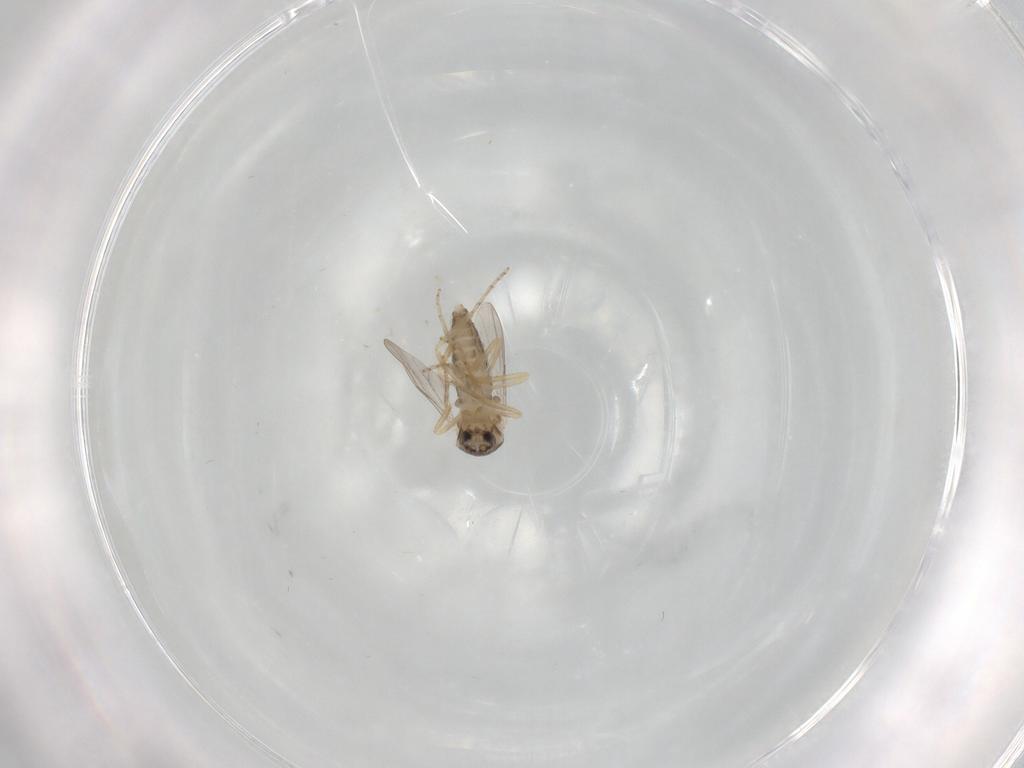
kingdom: Animalia
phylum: Arthropoda
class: Insecta
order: Diptera
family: Ceratopogonidae
